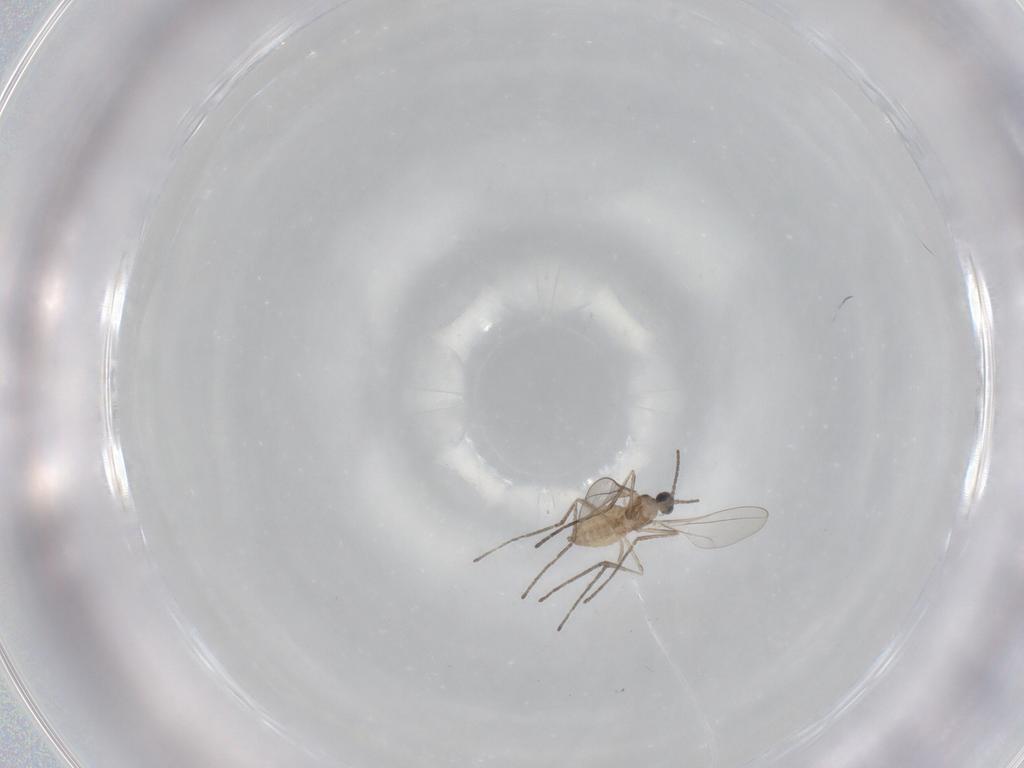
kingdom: Animalia
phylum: Arthropoda
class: Insecta
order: Diptera
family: Cecidomyiidae
